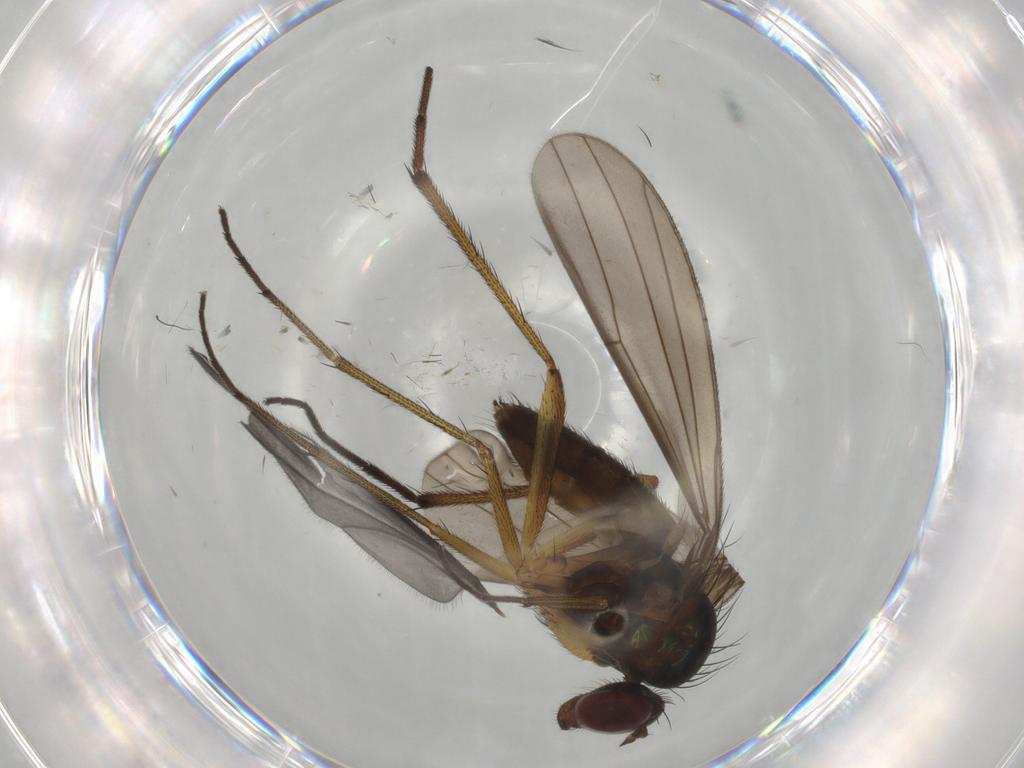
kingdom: Animalia
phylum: Arthropoda
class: Insecta
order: Diptera
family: Dolichopodidae
